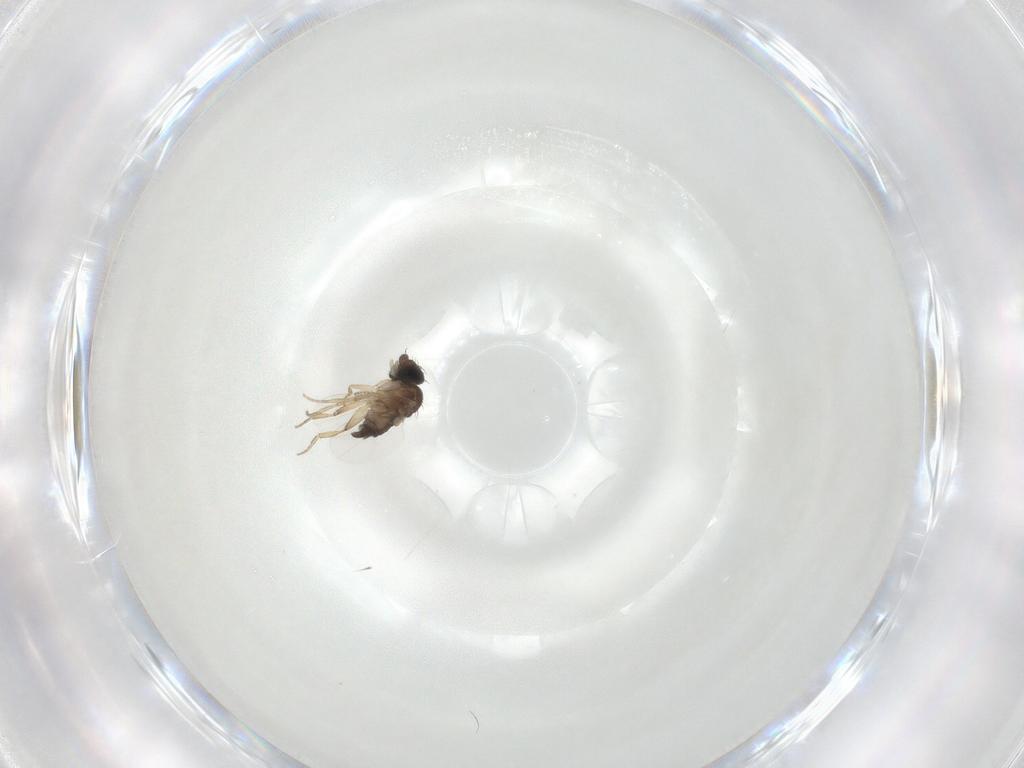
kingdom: Animalia
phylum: Arthropoda
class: Insecta
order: Diptera
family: Phoridae
